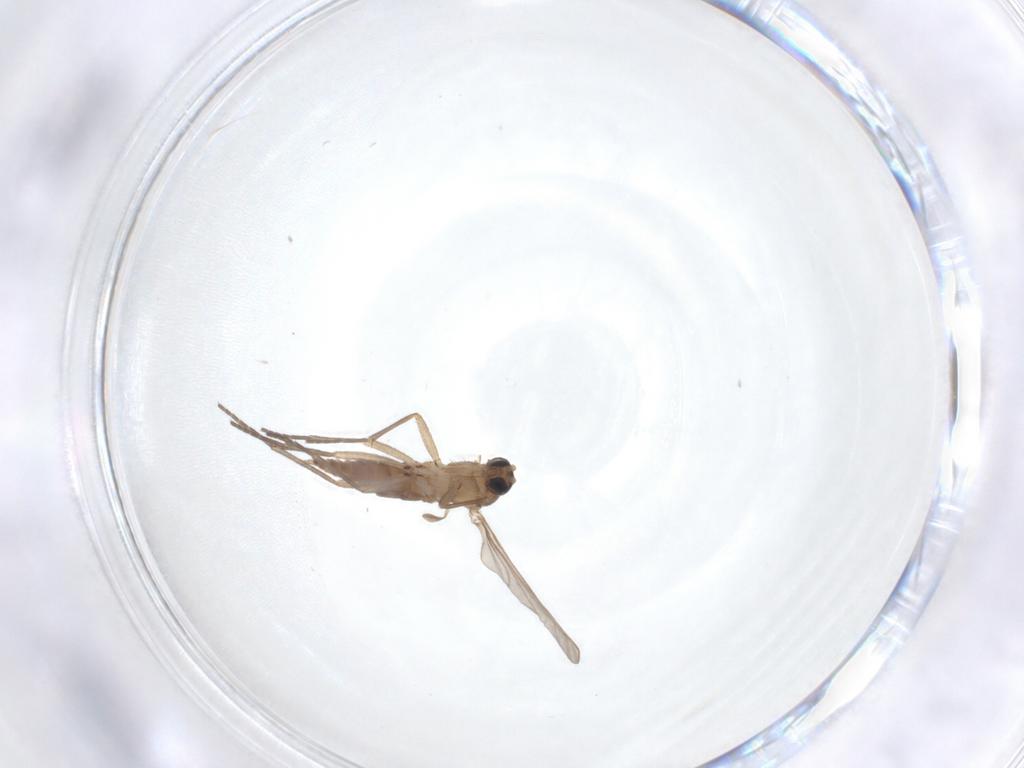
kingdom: Animalia
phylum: Arthropoda
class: Insecta
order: Diptera
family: Sciaridae
